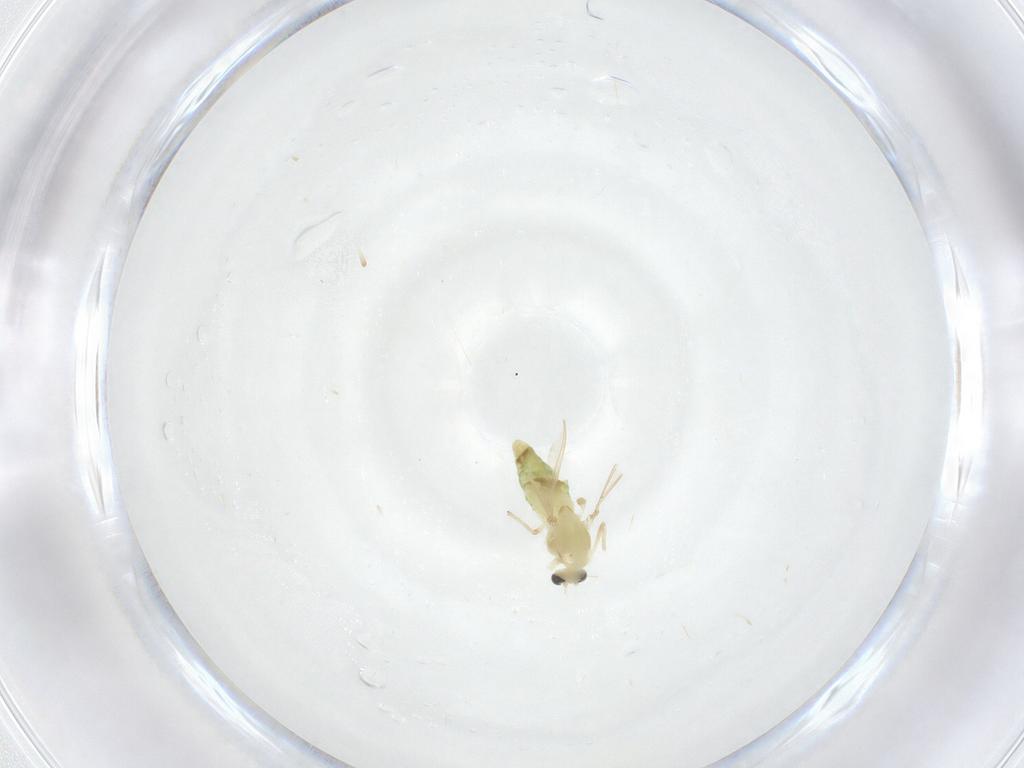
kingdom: Animalia
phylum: Arthropoda
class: Insecta
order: Diptera
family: Chironomidae
